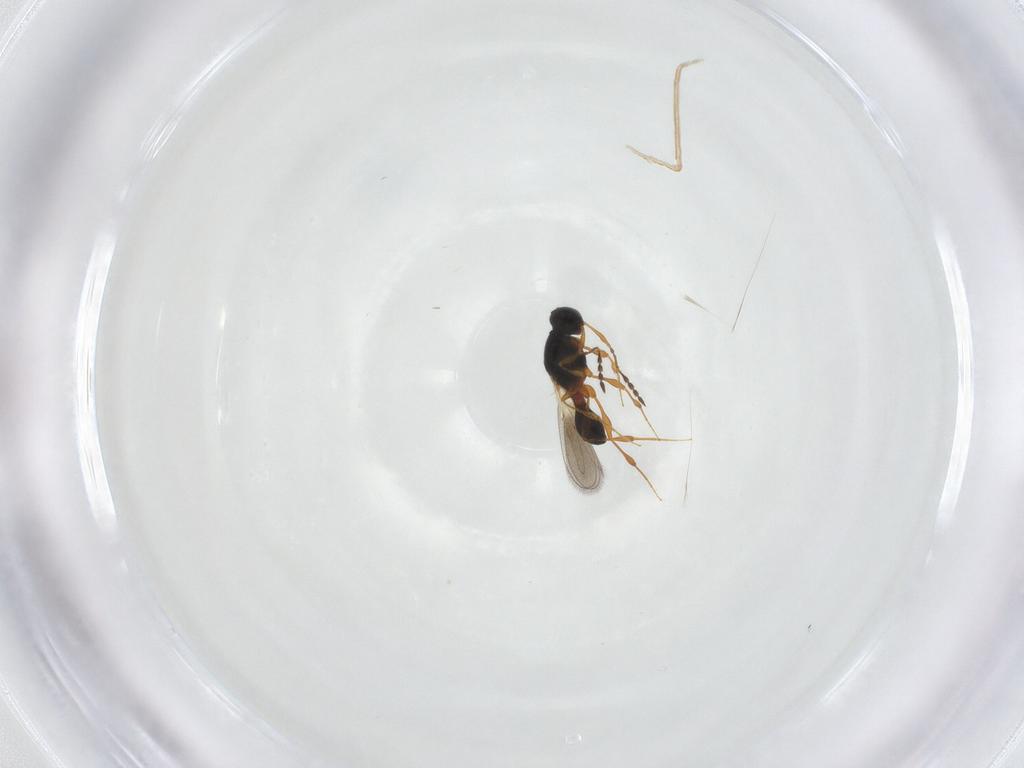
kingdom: Animalia
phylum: Arthropoda
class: Insecta
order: Hymenoptera
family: Platygastridae
